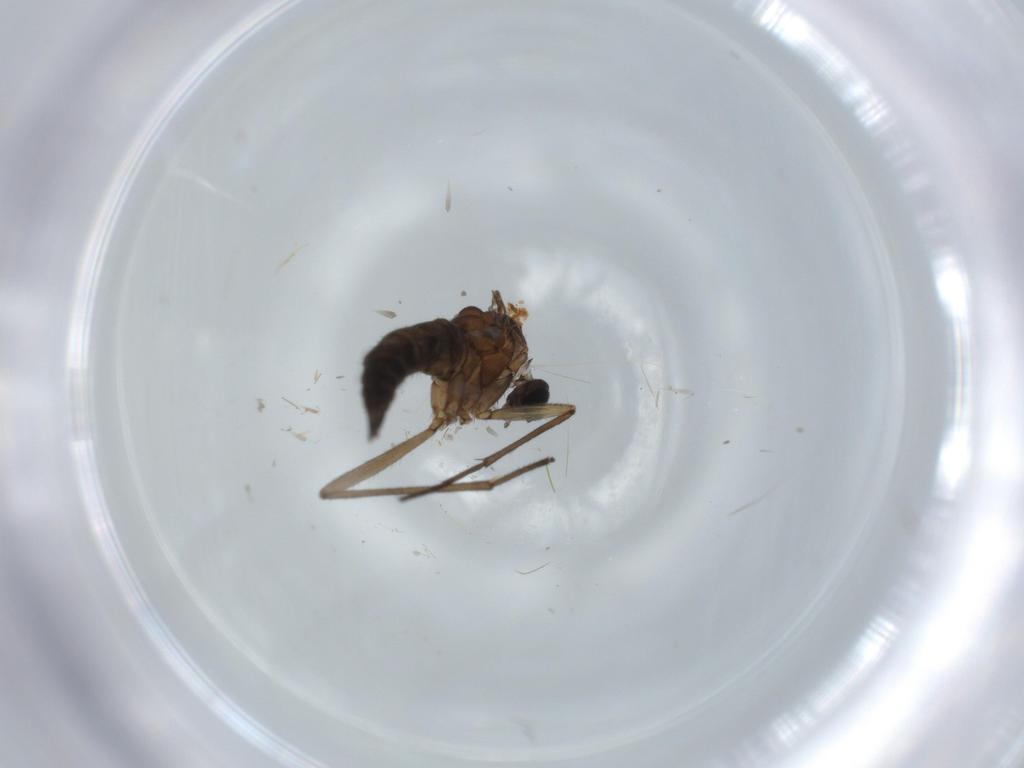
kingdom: Animalia
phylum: Arthropoda
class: Insecta
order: Diptera
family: Sciaridae
